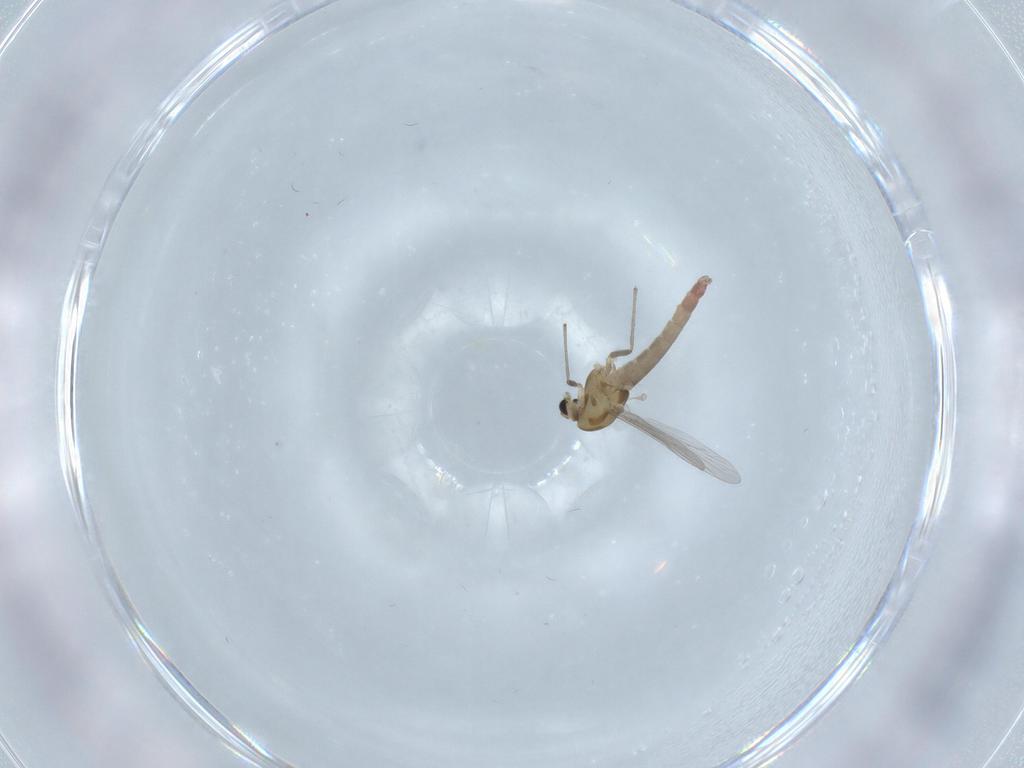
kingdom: Animalia
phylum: Arthropoda
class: Insecta
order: Diptera
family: Chironomidae
